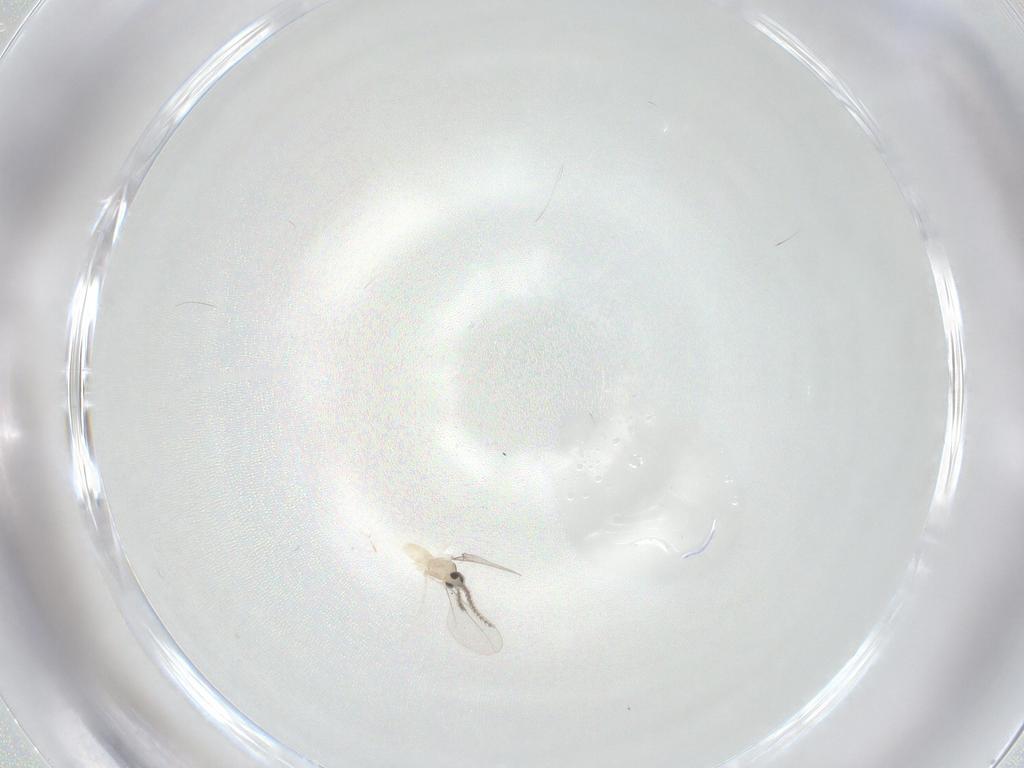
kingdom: Animalia
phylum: Arthropoda
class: Insecta
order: Diptera
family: Cecidomyiidae
